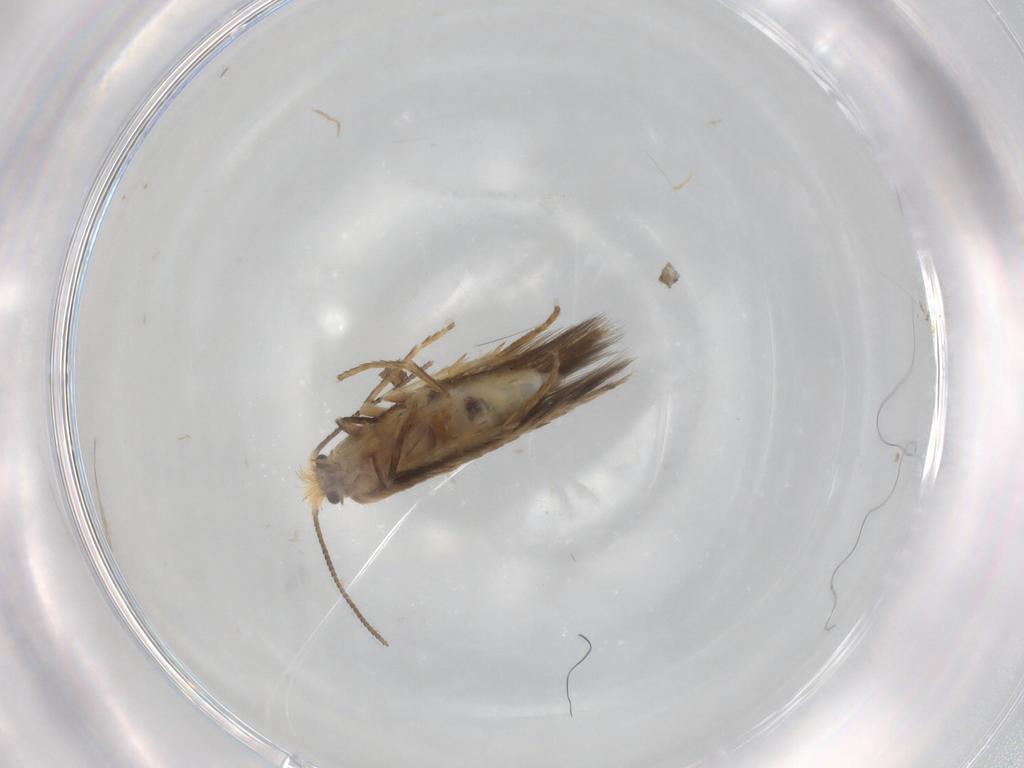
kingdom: Animalia
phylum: Arthropoda
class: Insecta
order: Lepidoptera
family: Nepticulidae
